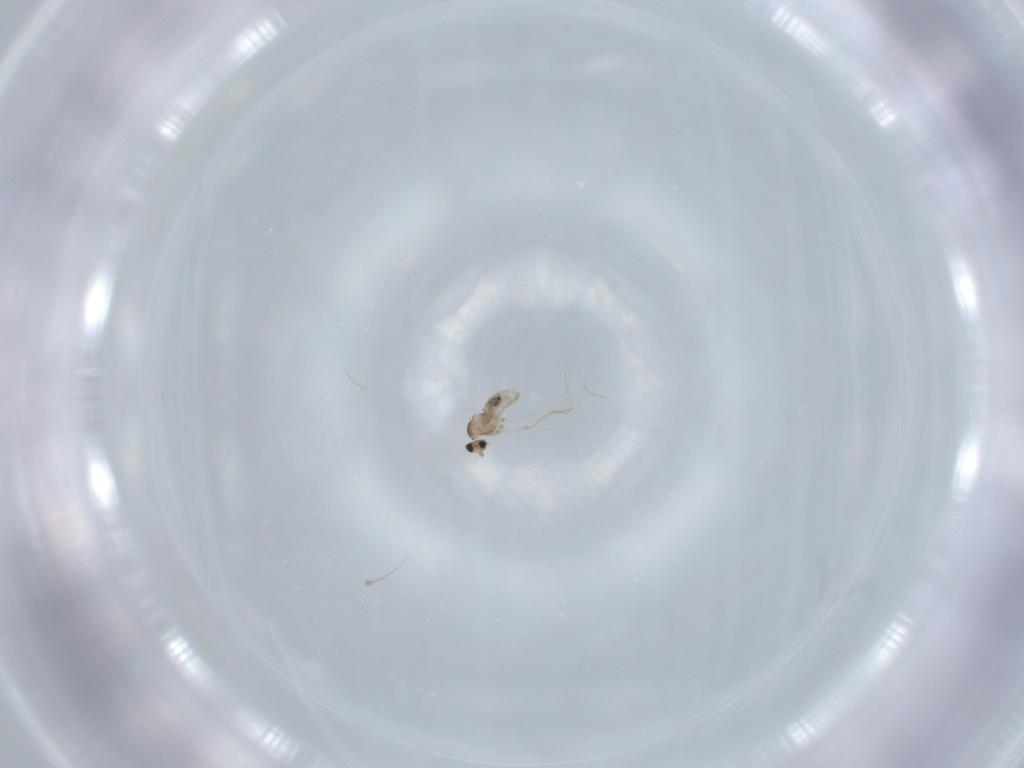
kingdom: Animalia
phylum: Arthropoda
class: Insecta
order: Diptera
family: Cecidomyiidae
